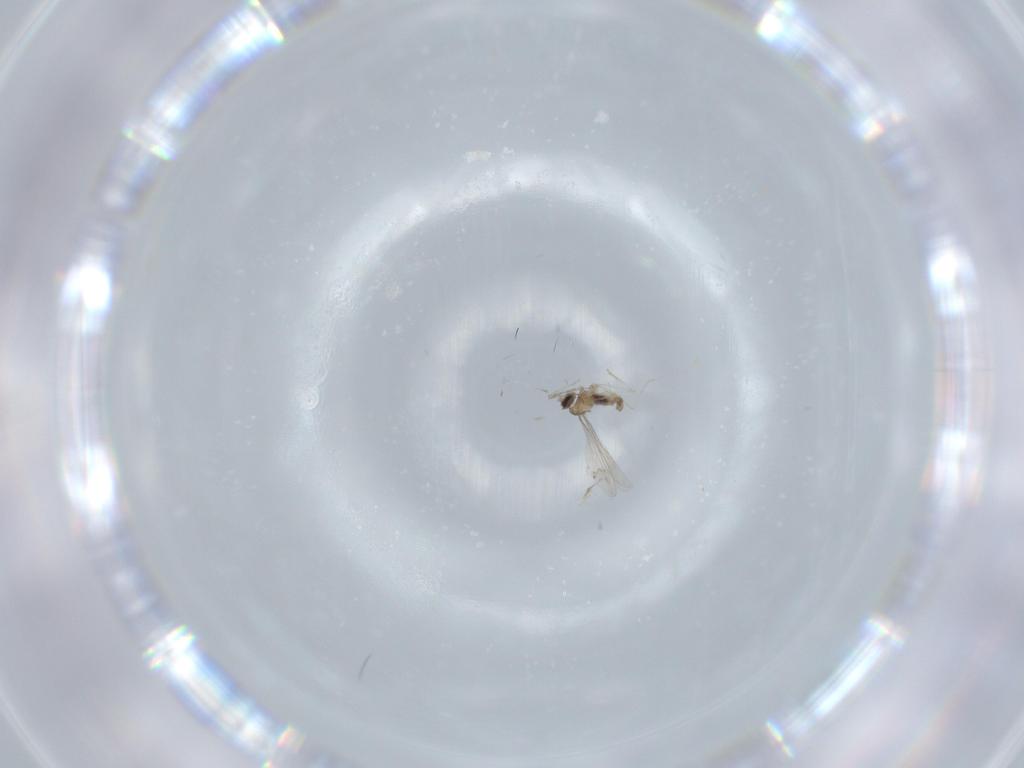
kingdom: Animalia
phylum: Arthropoda
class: Insecta
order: Diptera
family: Cecidomyiidae
